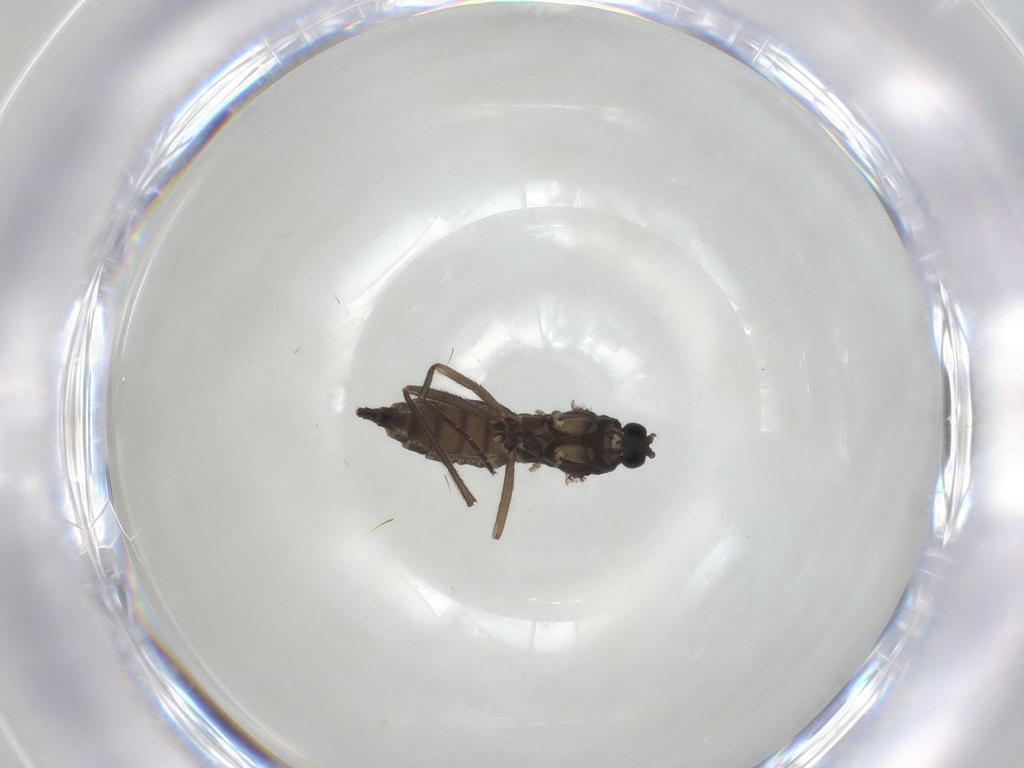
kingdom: Animalia
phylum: Arthropoda
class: Insecta
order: Diptera
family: Sciaridae
